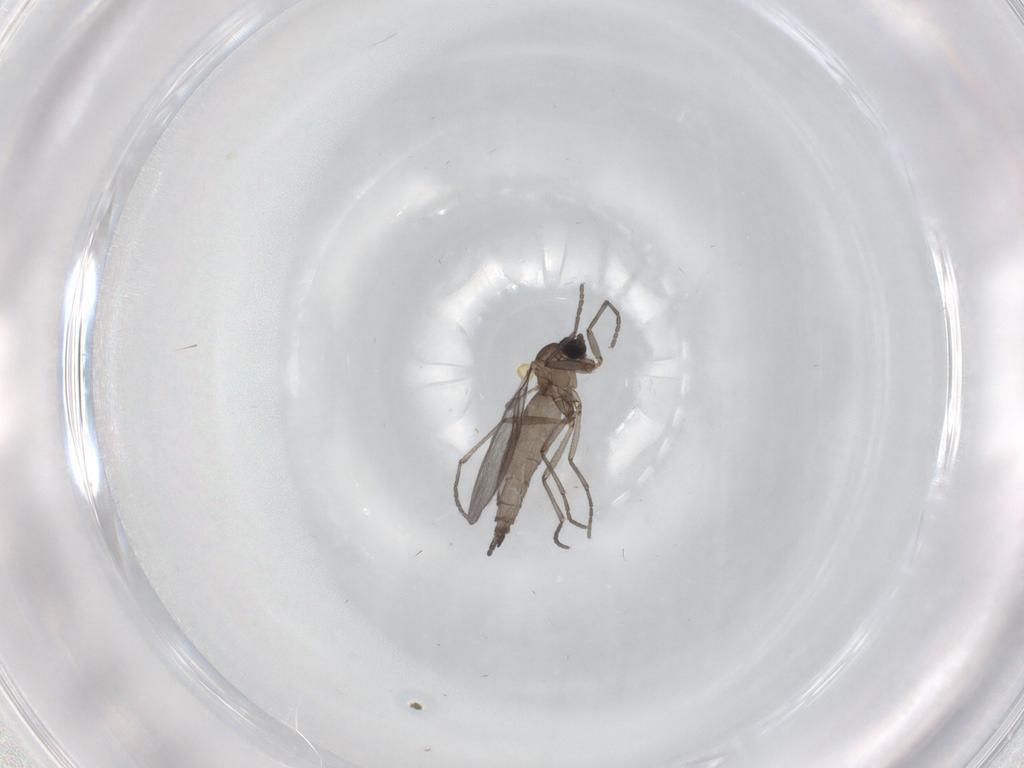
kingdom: Animalia
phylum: Arthropoda
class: Insecta
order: Diptera
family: Sciaridae
